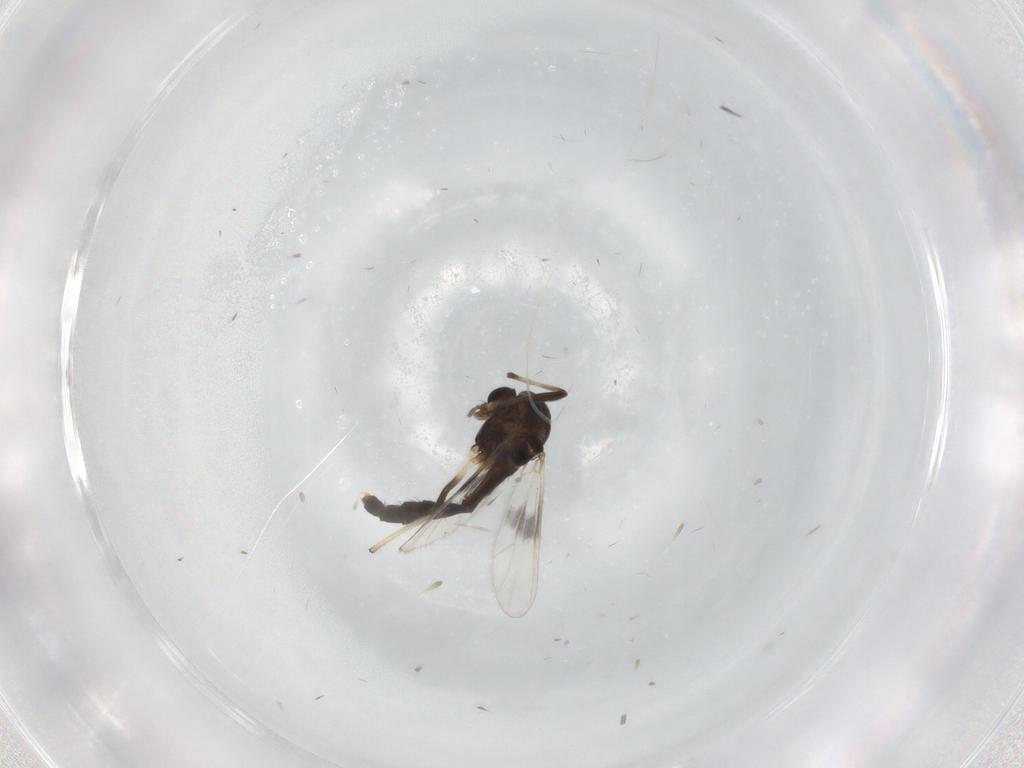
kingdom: Animalia
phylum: Arthropoda
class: Insecta
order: Diptera
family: Chironomidae
